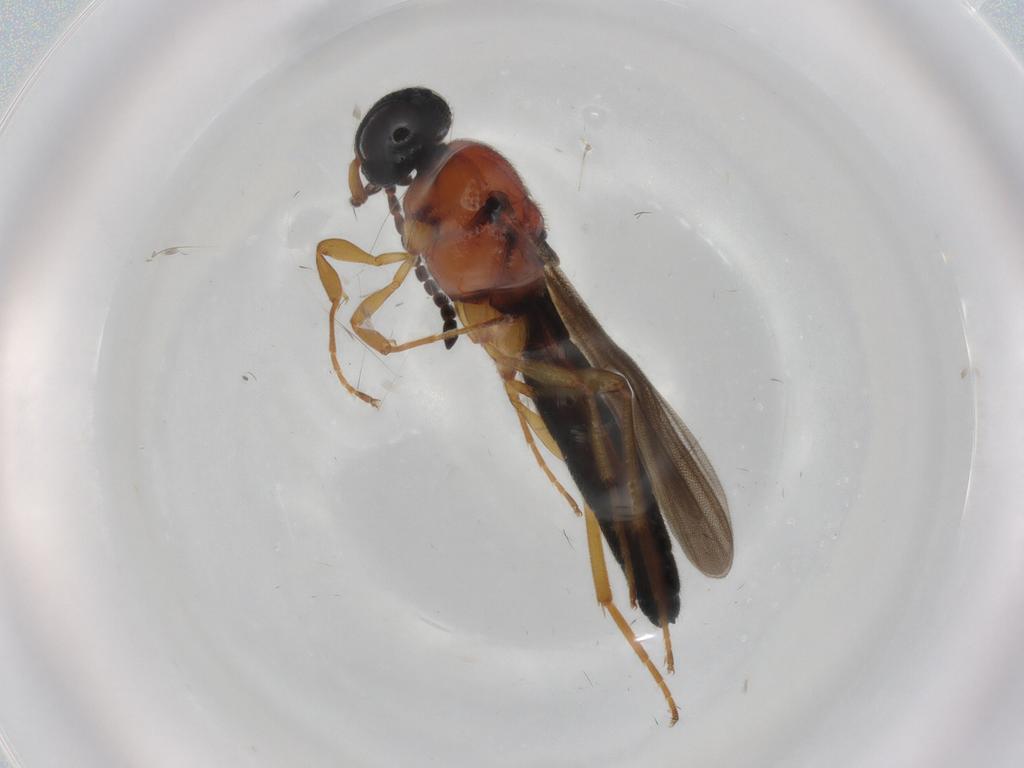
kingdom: Animalia
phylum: Arthropoda
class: Insecta
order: Hymenoptera
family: Scelionidae
